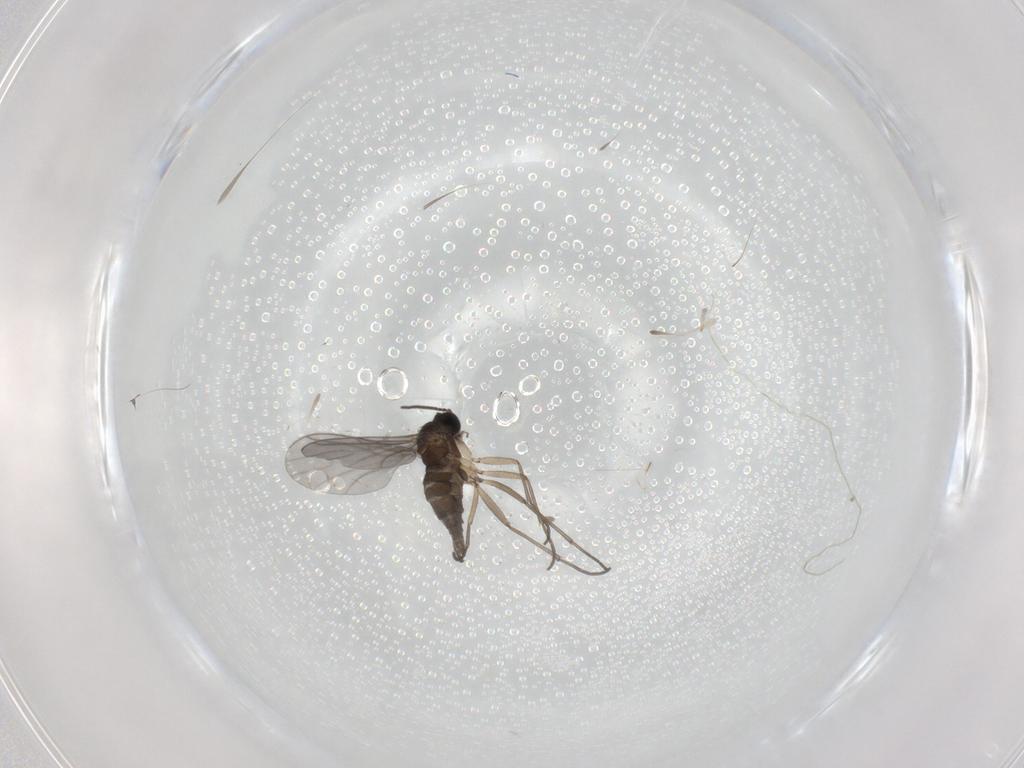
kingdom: Animalia
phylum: Arthropoda
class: Insecta
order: Diptera
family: Sciaridae
